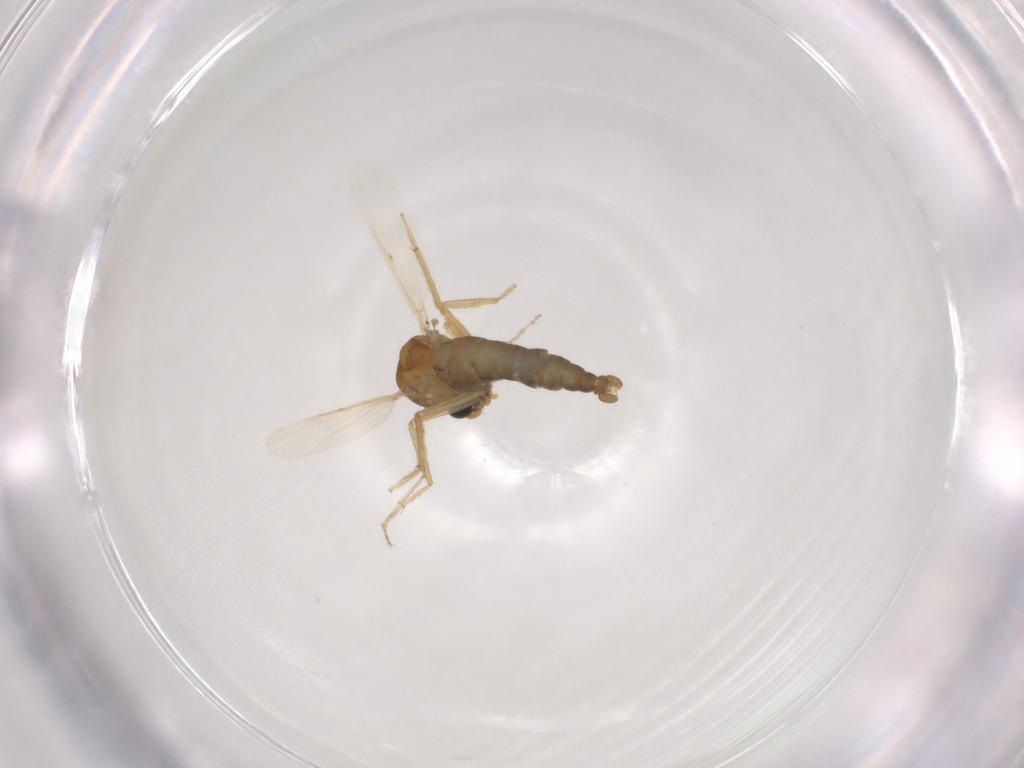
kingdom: Animalia
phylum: Arthropoda
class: Insecta
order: Diptera
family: Ceratopogonidae
